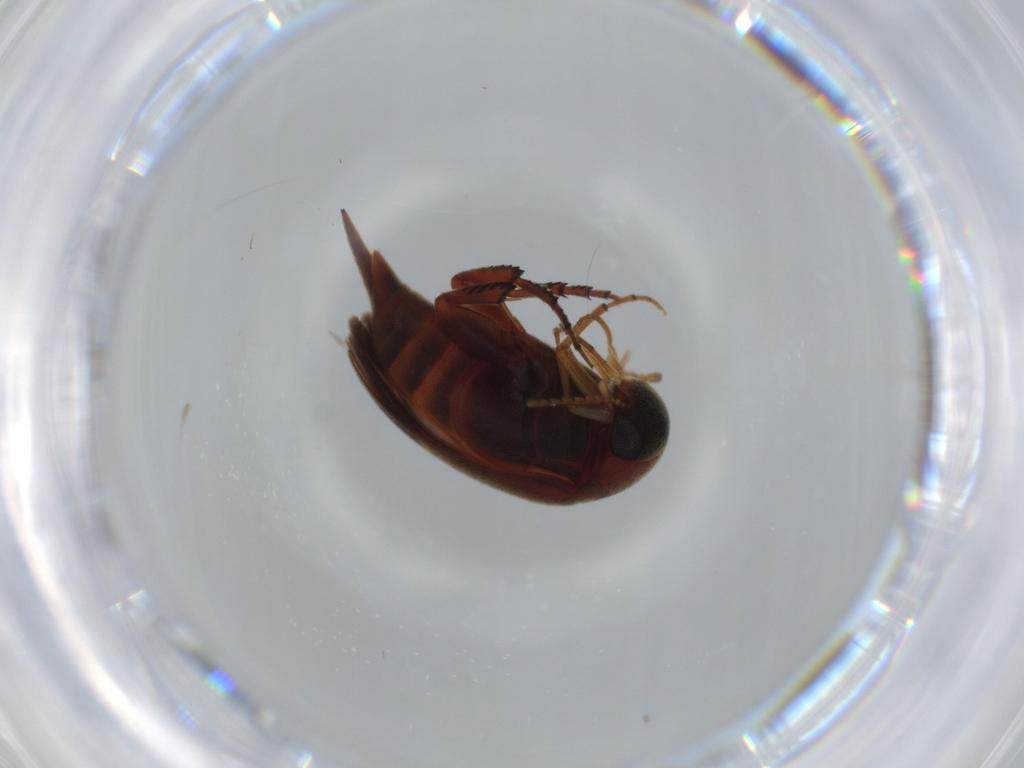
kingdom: Animalia
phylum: Arthropoda
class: Insecta
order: Coleoptera
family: Mordellidae
